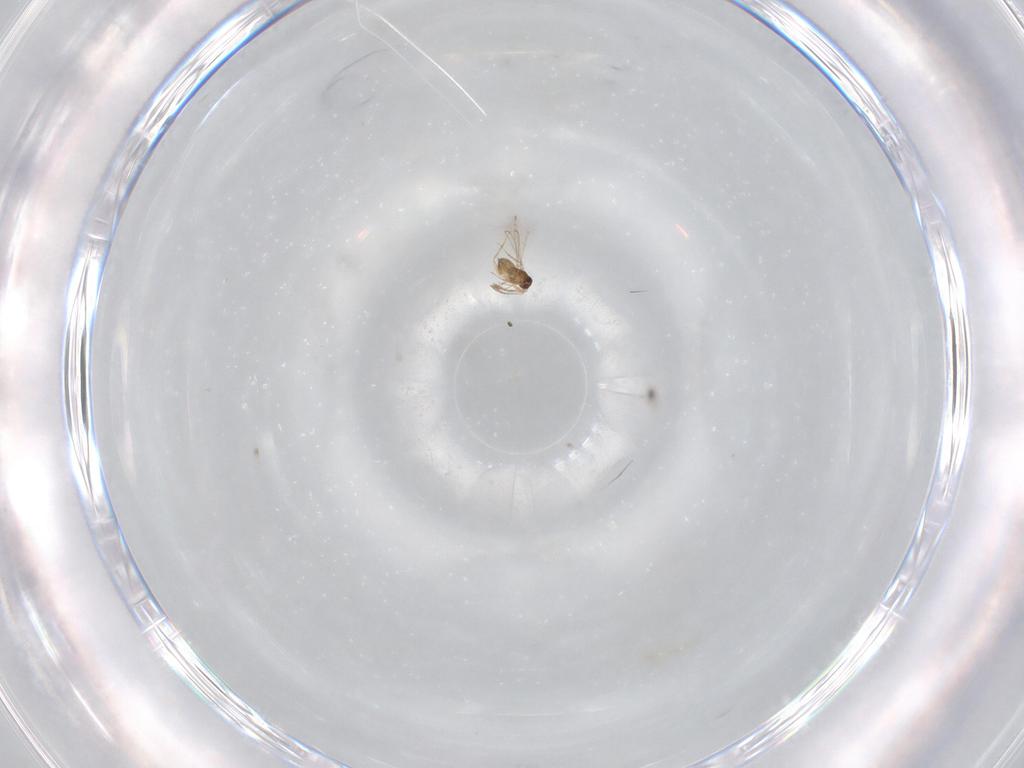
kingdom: Animalia
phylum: Arthropoda
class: Insecta
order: Hymenoptera
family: Mymaridae
